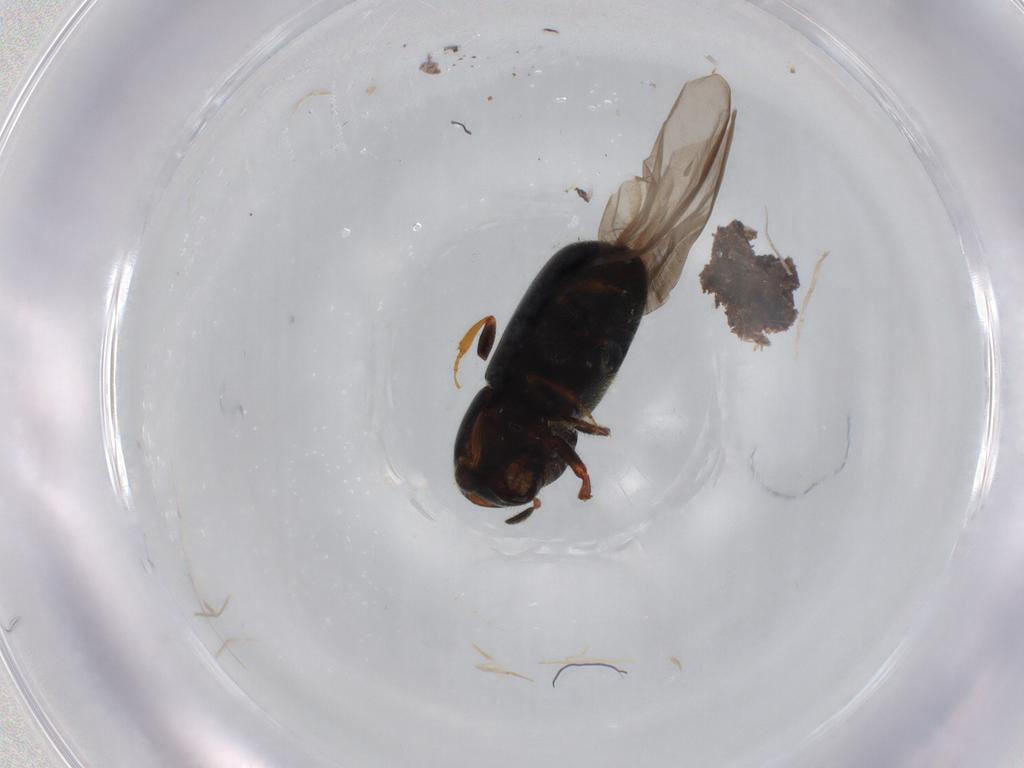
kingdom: Animalia
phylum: Arthropoda
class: Insecta
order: Coleoptera
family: Curculionidae
